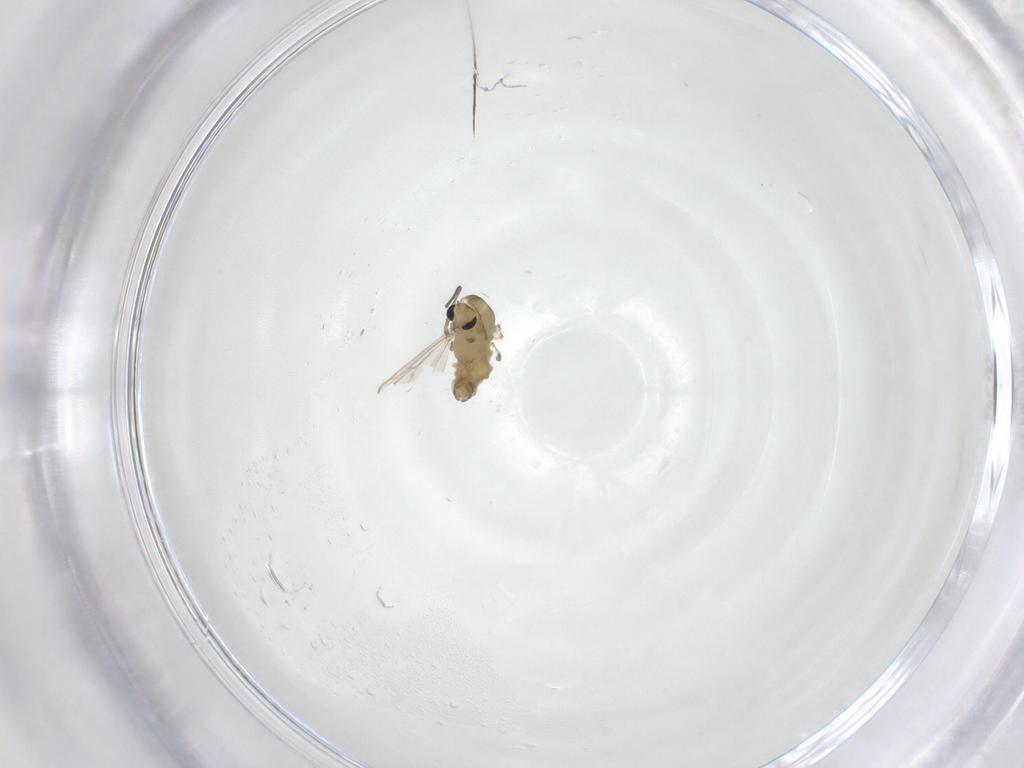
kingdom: Animalia
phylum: Arthropoda
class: Insecta
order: Diptera
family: Chironomidae
